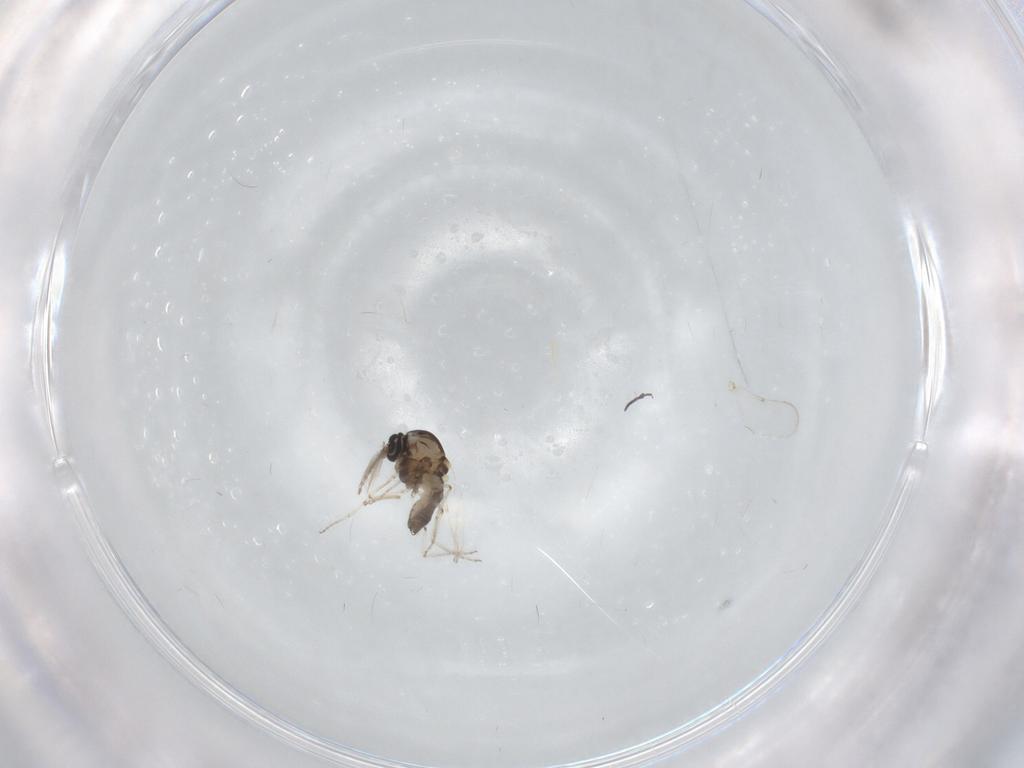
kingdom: Animalia
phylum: Arthropoda
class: Insecta
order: Diptera
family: Ceratopogonidae
